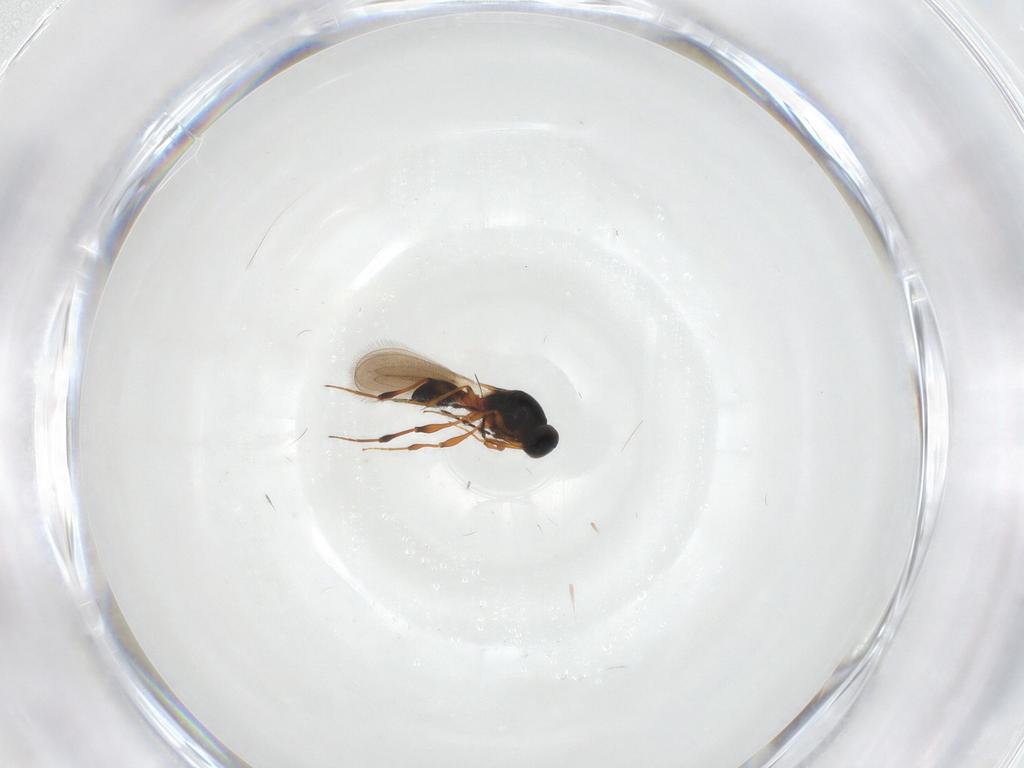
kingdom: Animalia
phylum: Arthropoda
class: Insecta
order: Hymenoptera
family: Platygastridae
